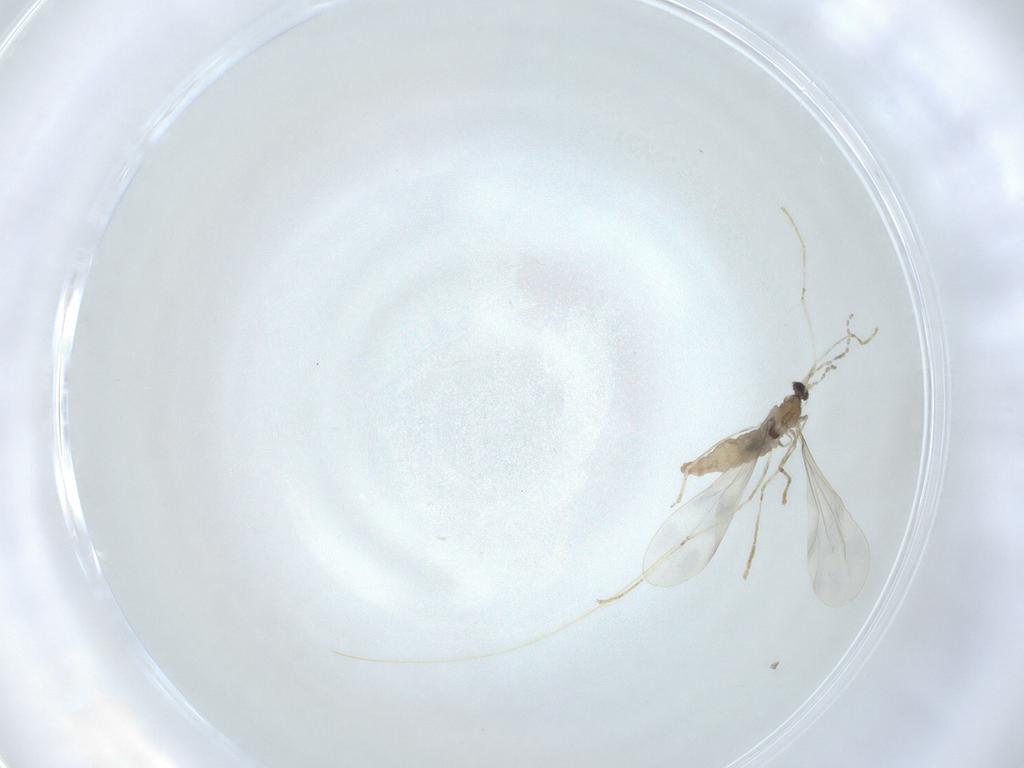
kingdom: Animalia
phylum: Arthropoda
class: Insecta
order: Diptera
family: Cecidomyiidae
